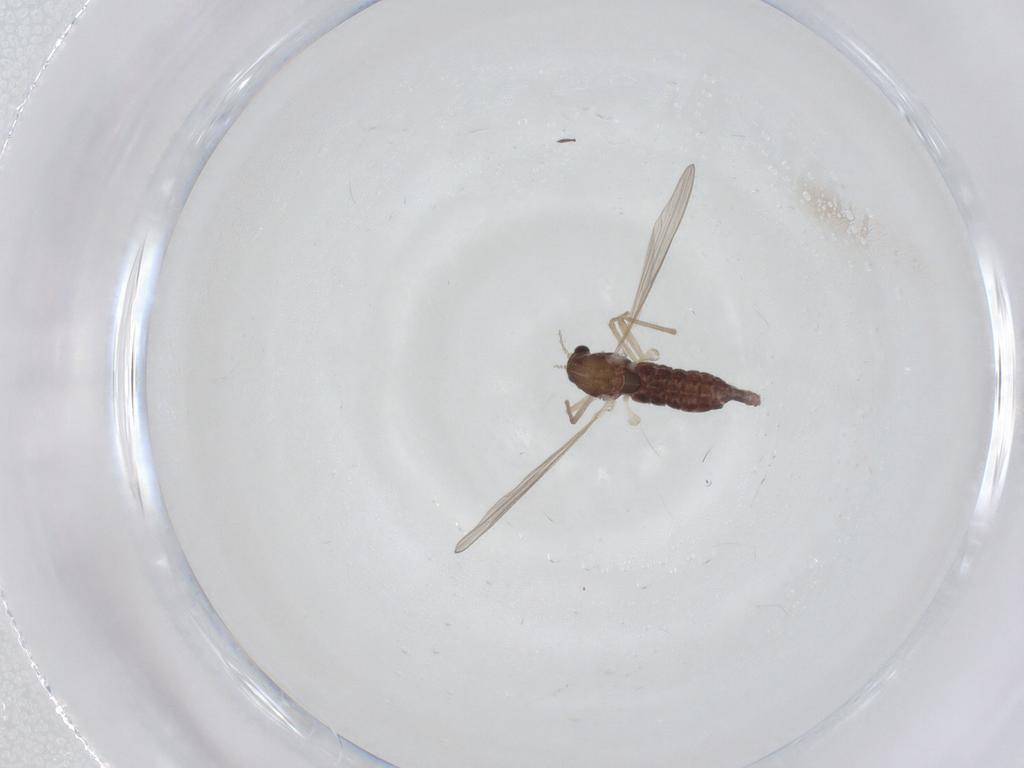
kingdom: Animalia
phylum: Arthropoda
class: Insecta
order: Diptera
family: Chironomidae
